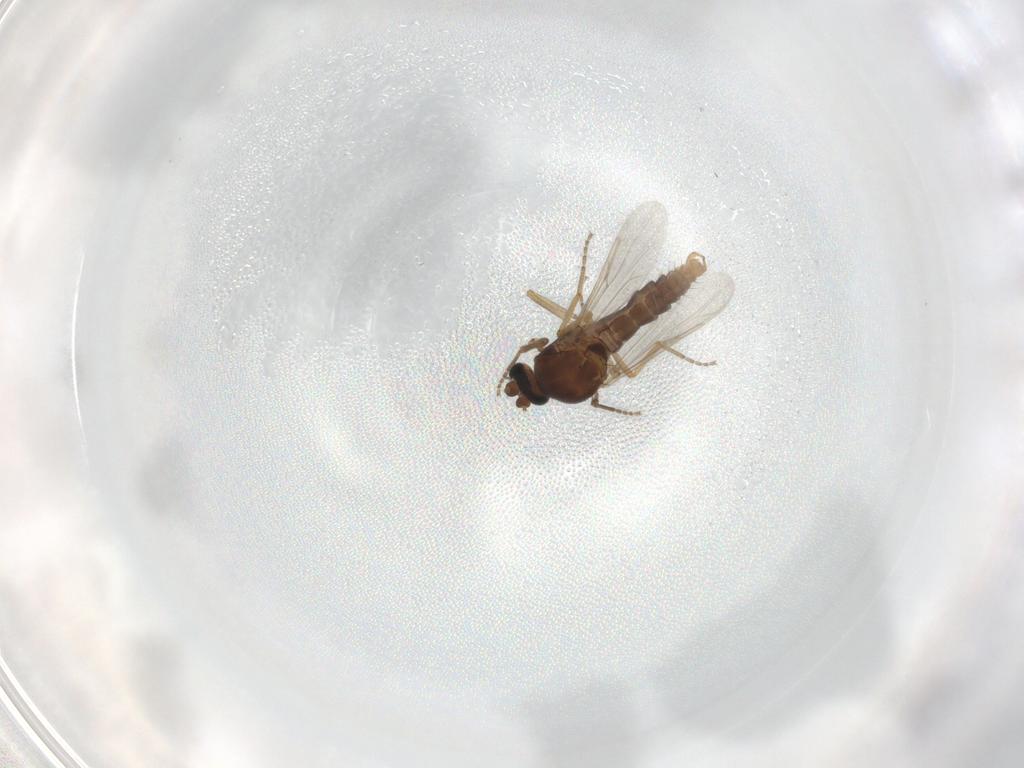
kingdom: Animalia
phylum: Arthropoda
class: Insecta
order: Diptera
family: Ceratopogonidae
